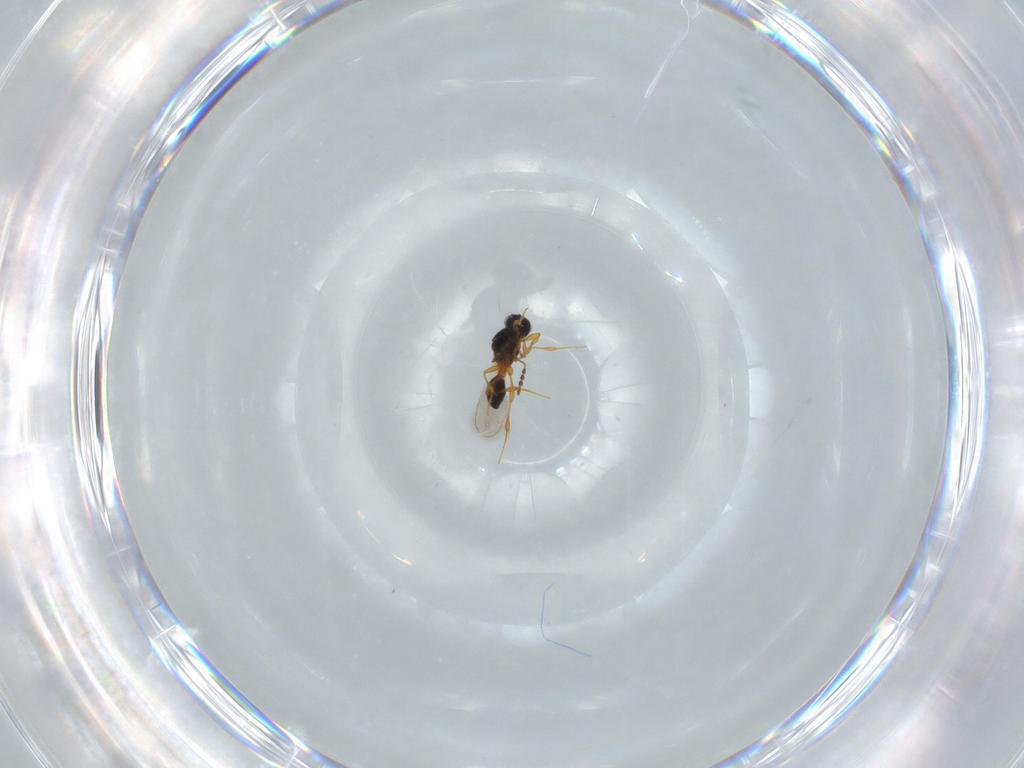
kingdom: Animalia
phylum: Arthropoda
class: Insecta
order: Hymenoptera
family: Platygastridae
